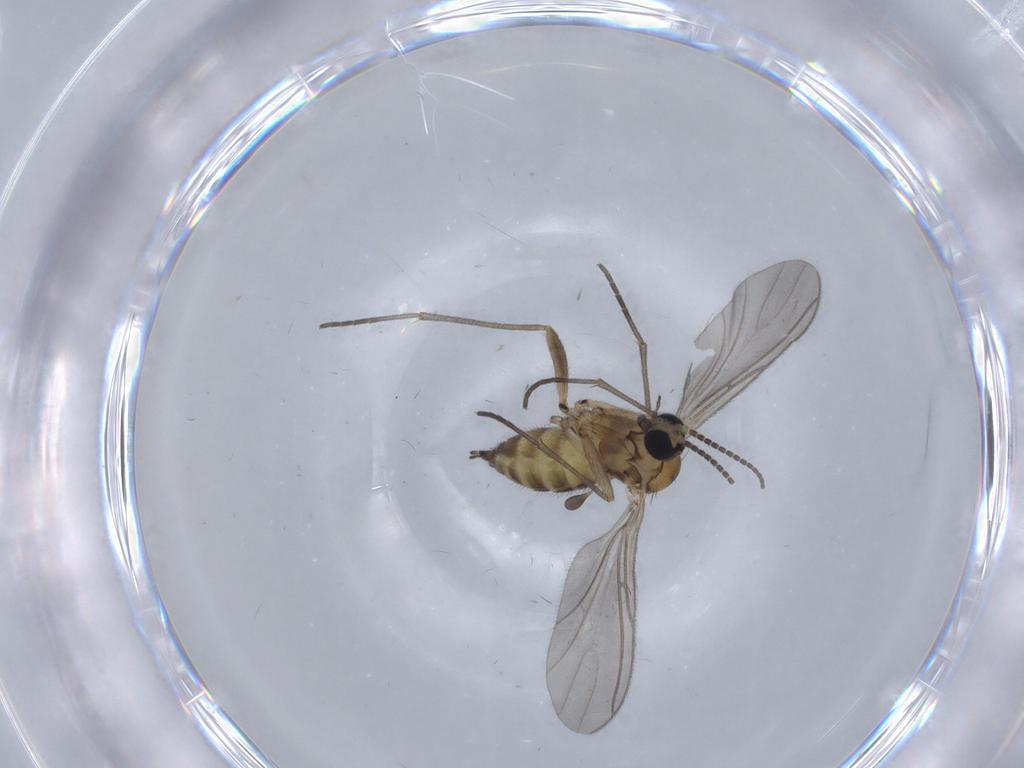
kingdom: Animalia
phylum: Arthropoda
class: Insecta
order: Diptera
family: Sciaridae
